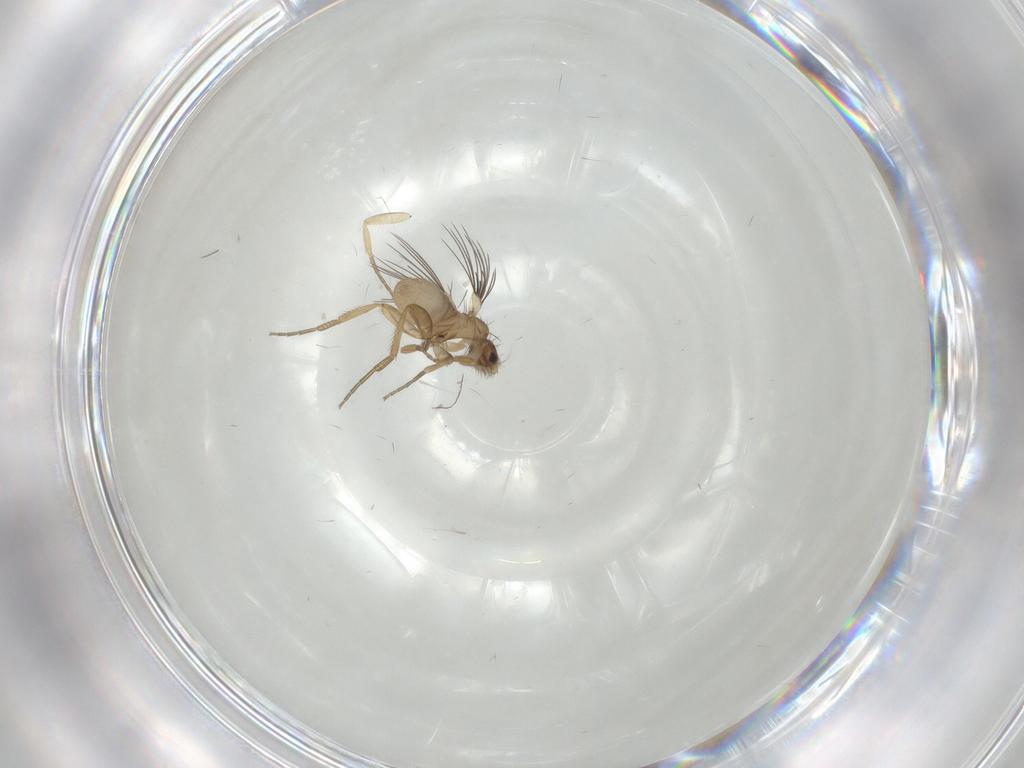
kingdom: Animalia
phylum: Arthropoda
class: Insecta
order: Diptera
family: Phoridae
